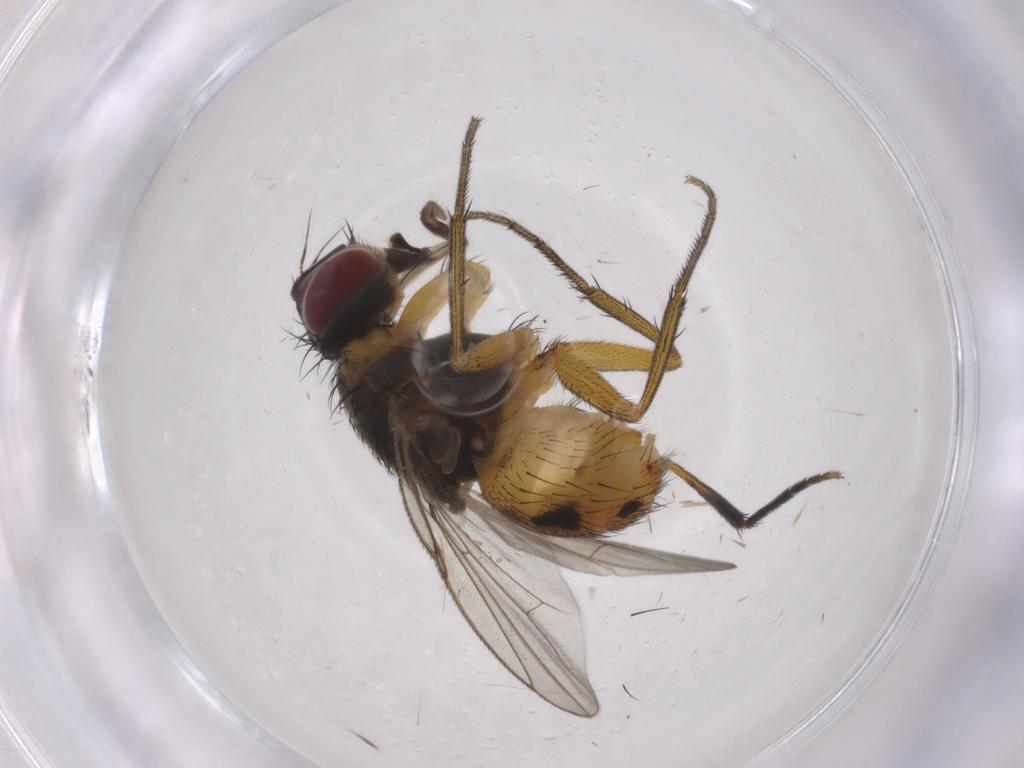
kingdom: Animalia
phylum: Arthropoda
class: Insecta
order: Diptera
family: Muscidae
